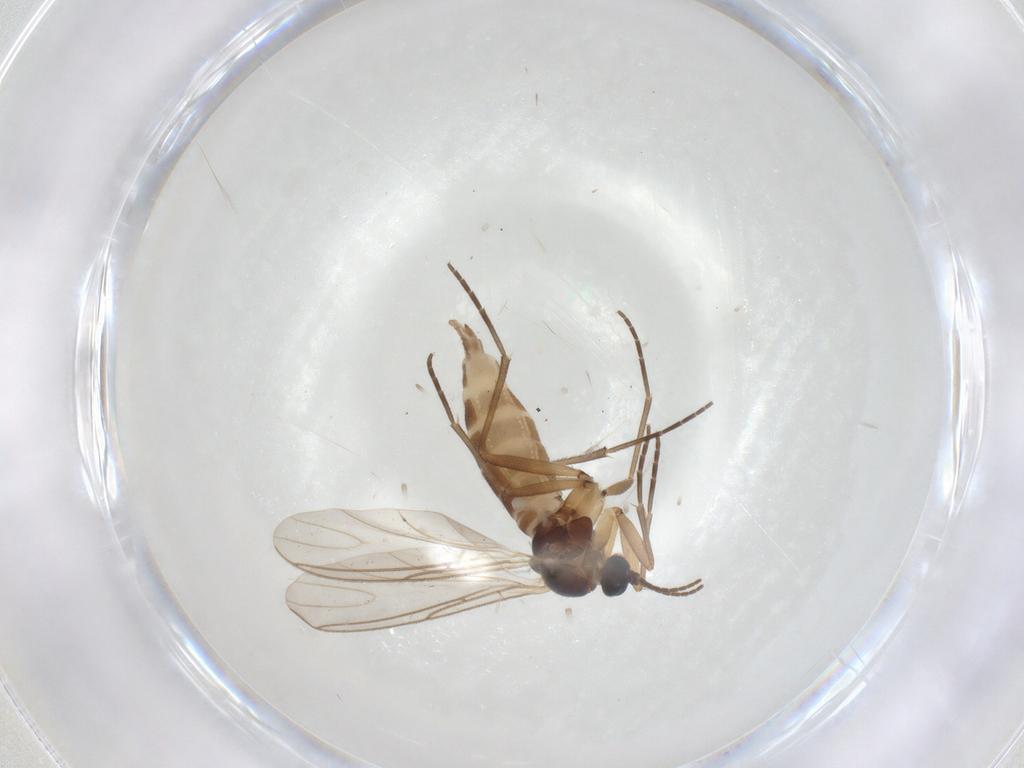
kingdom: Animalia
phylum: Arthropoda
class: Insecta
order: Diptera
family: Sciaridae
